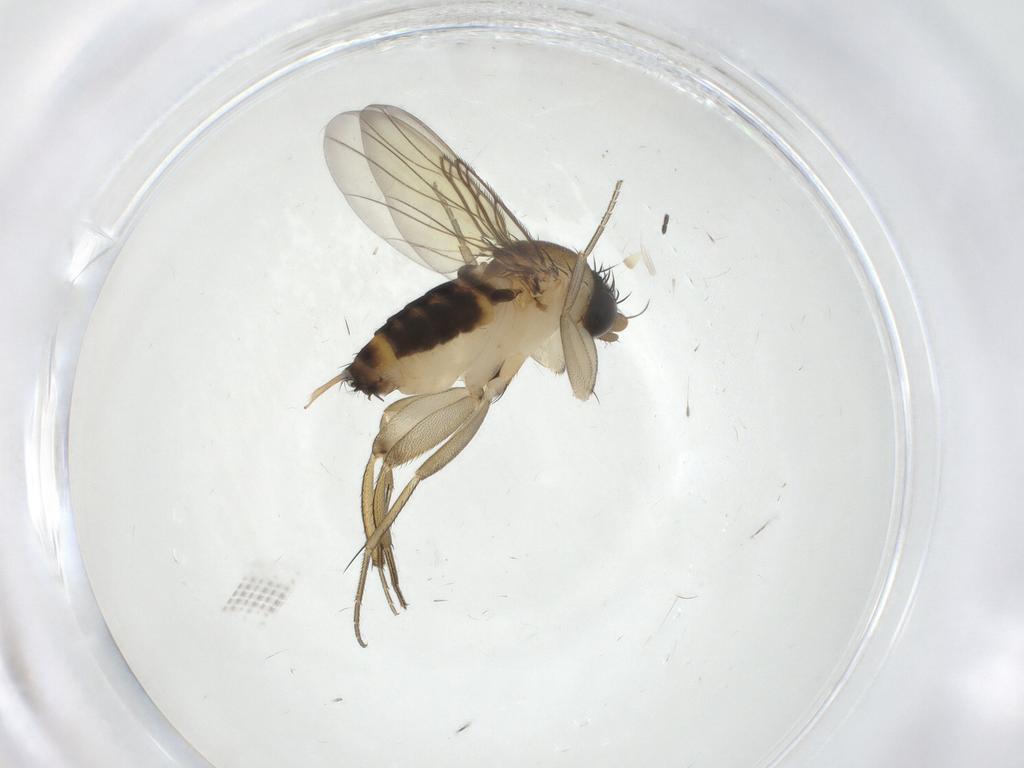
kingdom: Animalia
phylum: Arthropoda
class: Insecta
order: Diptera
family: Phoridae
